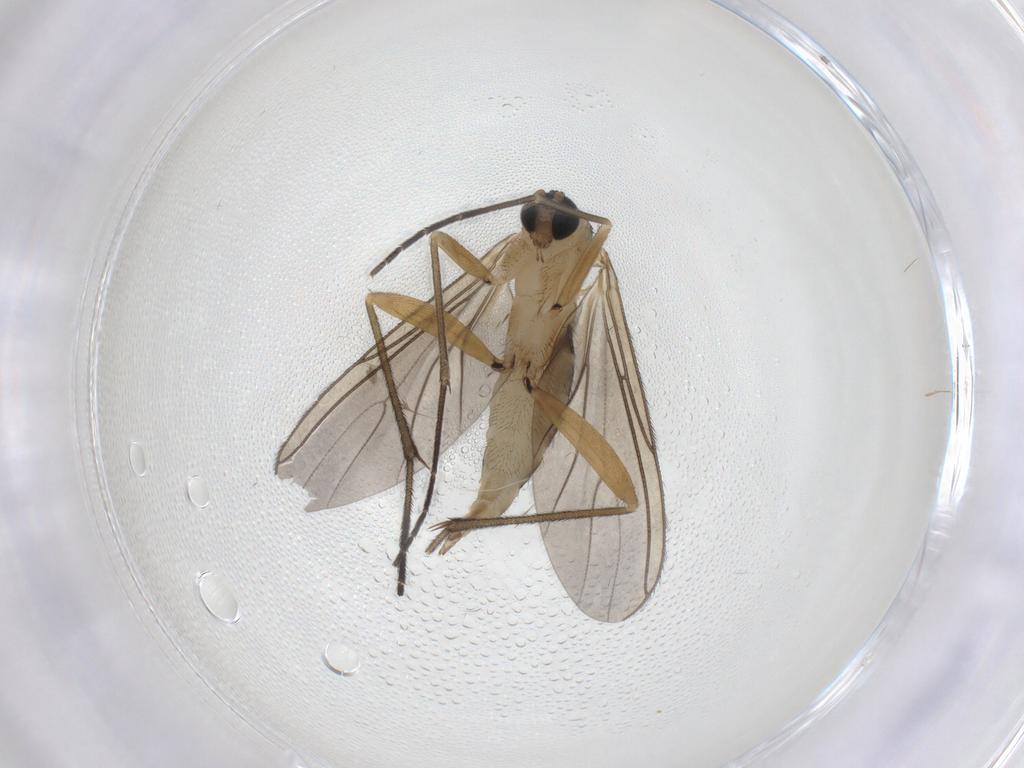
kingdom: Animalia
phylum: Arthropoda
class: Insecta
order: Diptera
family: Sciaridae
